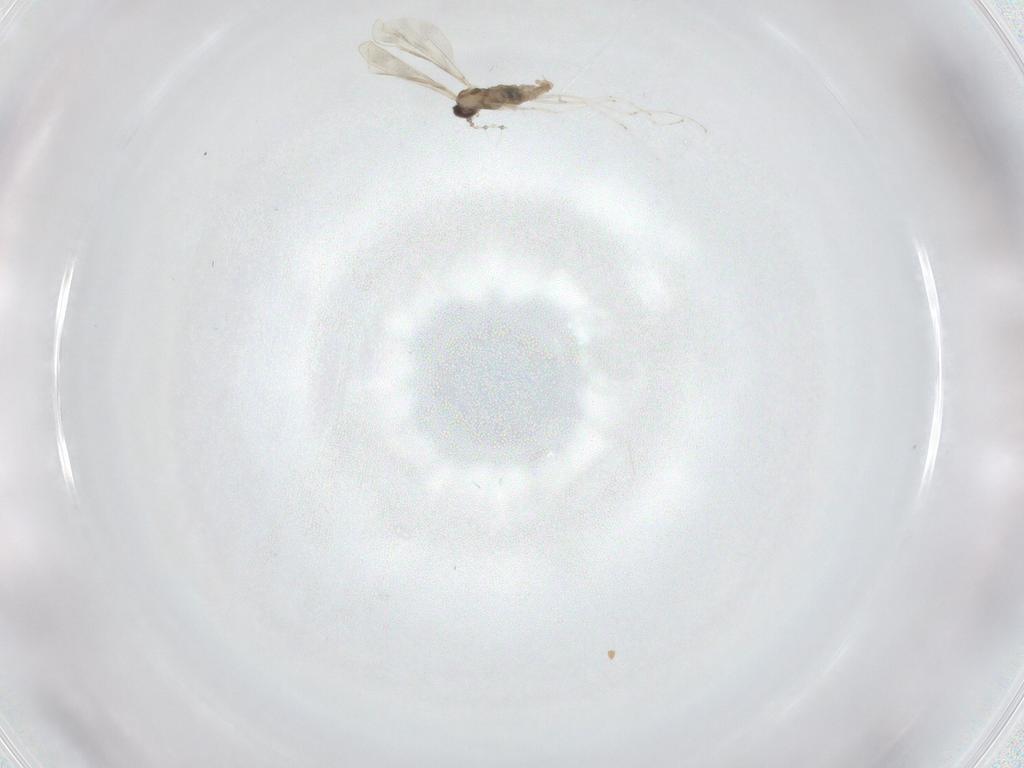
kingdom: Animalia
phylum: Arthropoda
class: Insecta
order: Diptera
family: Cecidomyiidae
